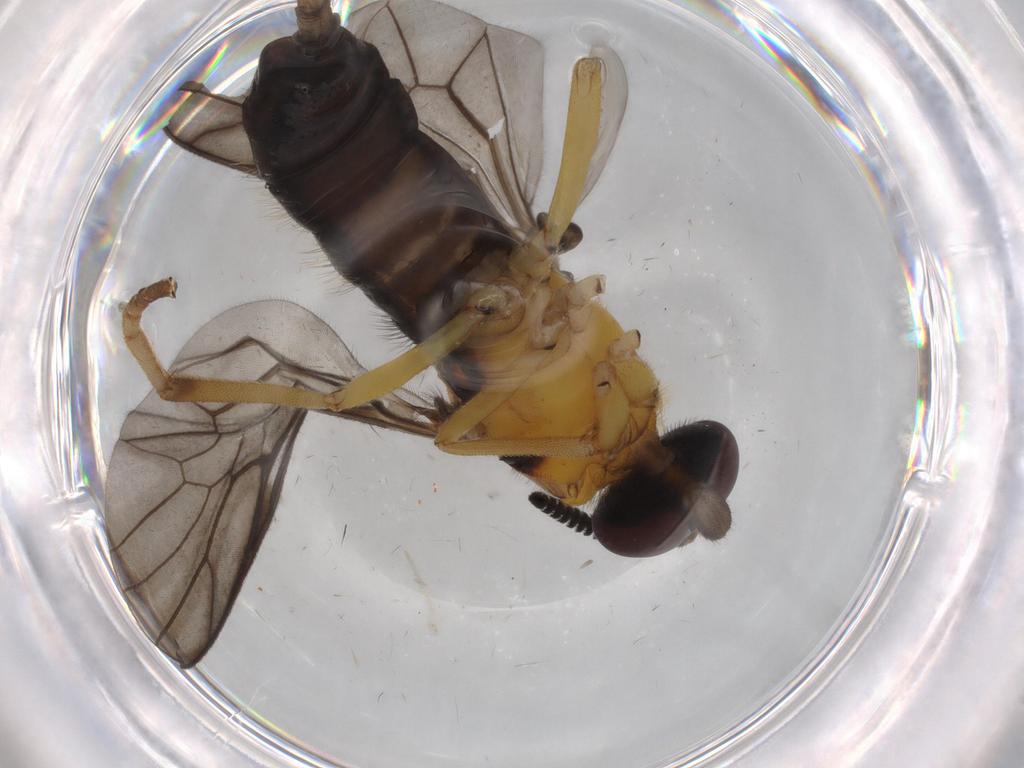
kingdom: Animalia
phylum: Arthropoda
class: Insecta
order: Diptera
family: Xylophagidae
